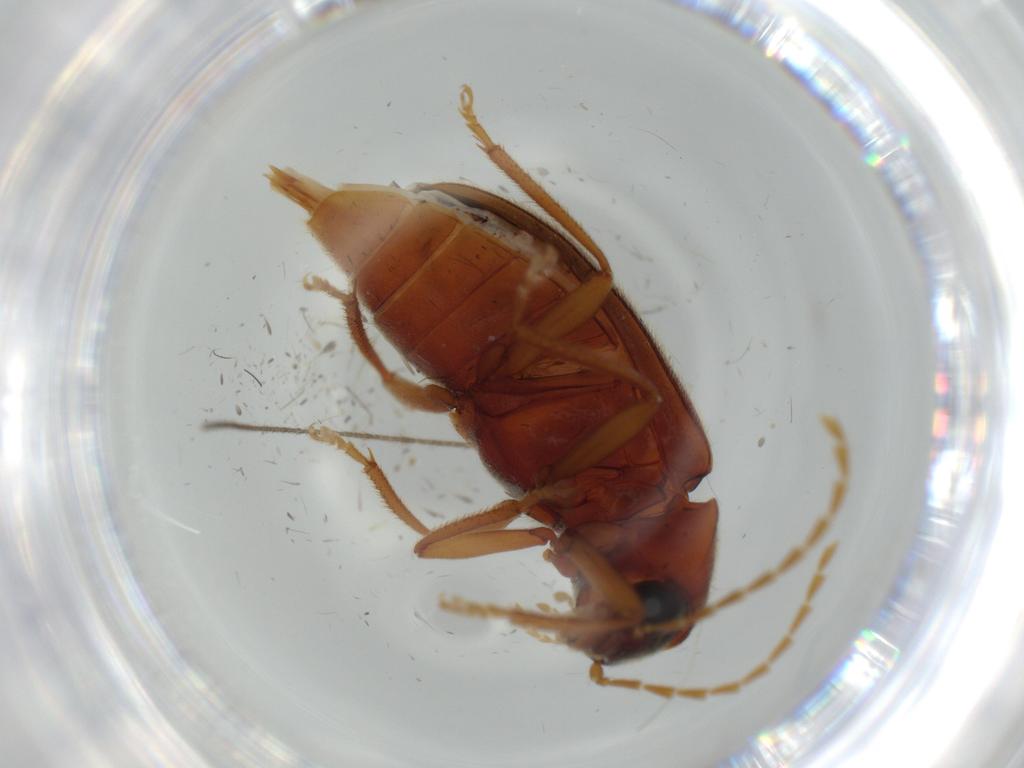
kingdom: Animalia
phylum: Arthropoda
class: Insecta
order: Coleoptera
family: Ptilodactylidae
